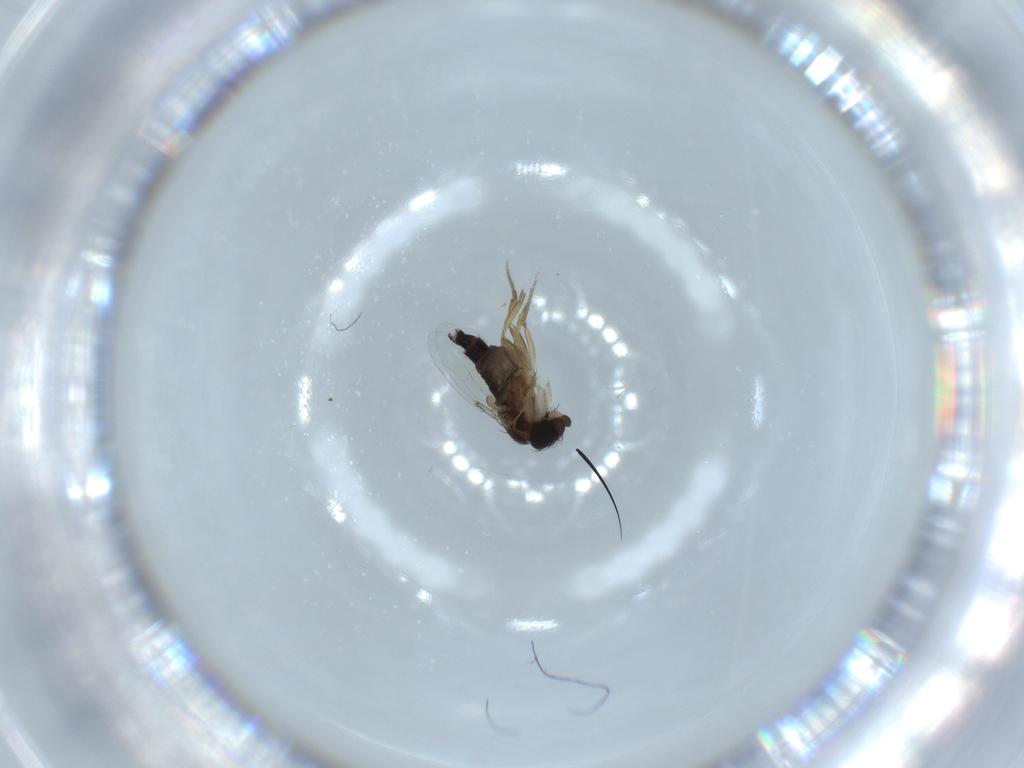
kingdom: Animalia
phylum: Arthropoda
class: Insecta
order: Diptera
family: Phoridae
